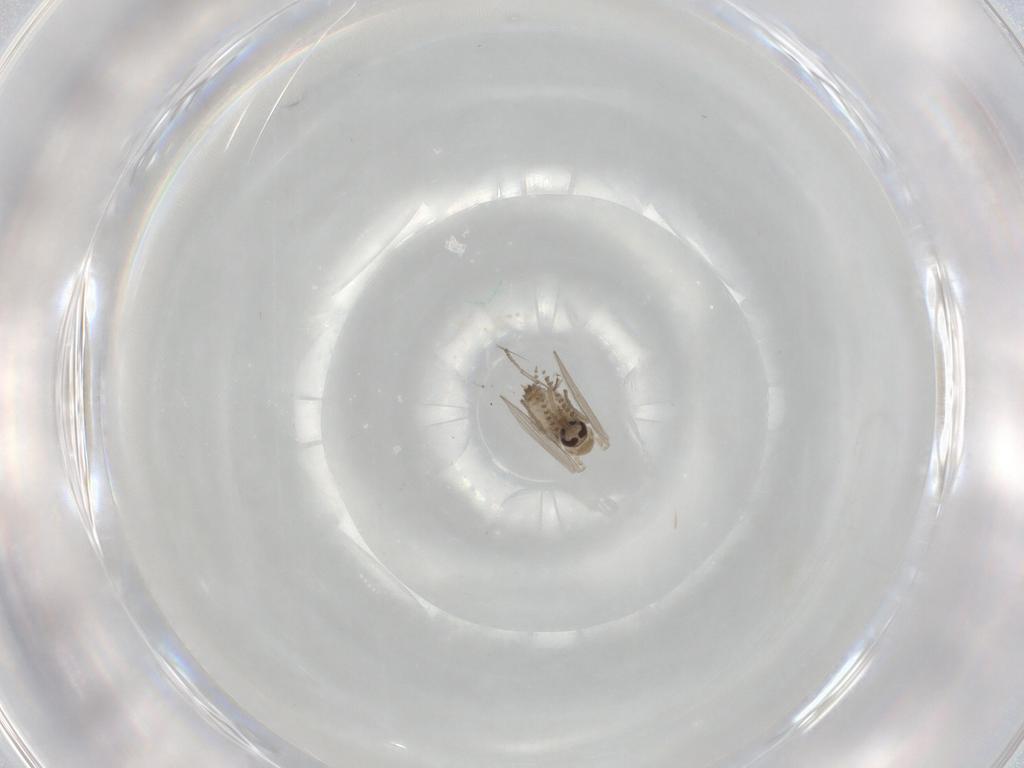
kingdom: Animalia
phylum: Arthropoda
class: Insecta
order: Diptera
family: Psychodidae
